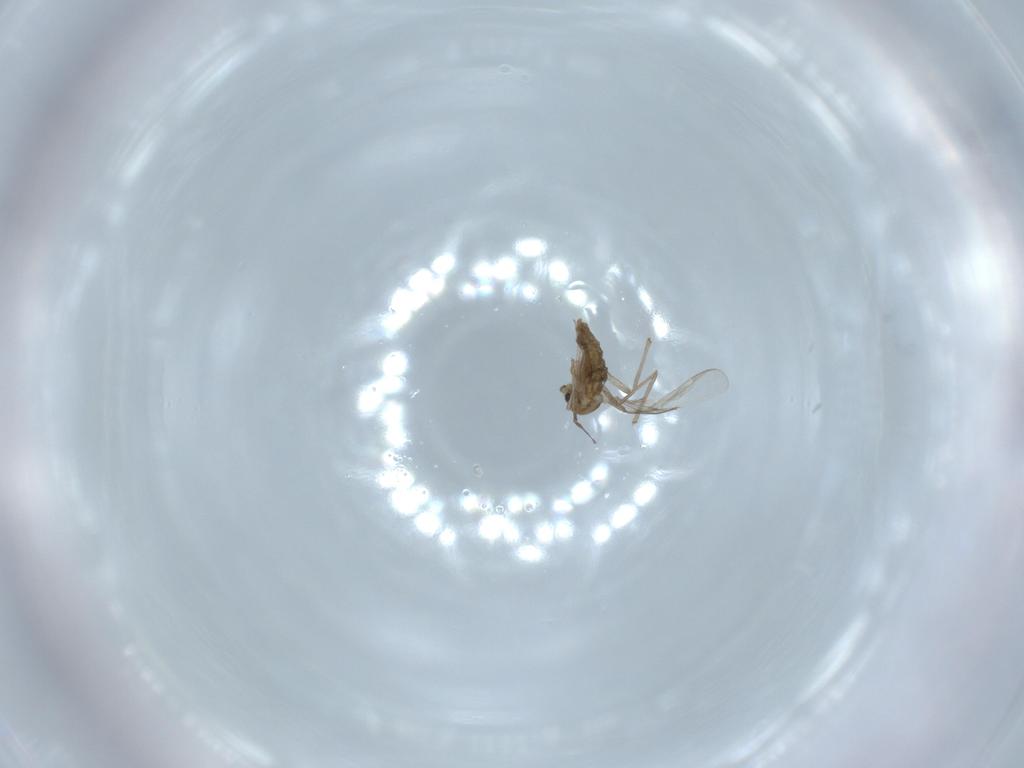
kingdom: Animalia
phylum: Arthropoda
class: Insecta
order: Diptera
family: Chironomidae
